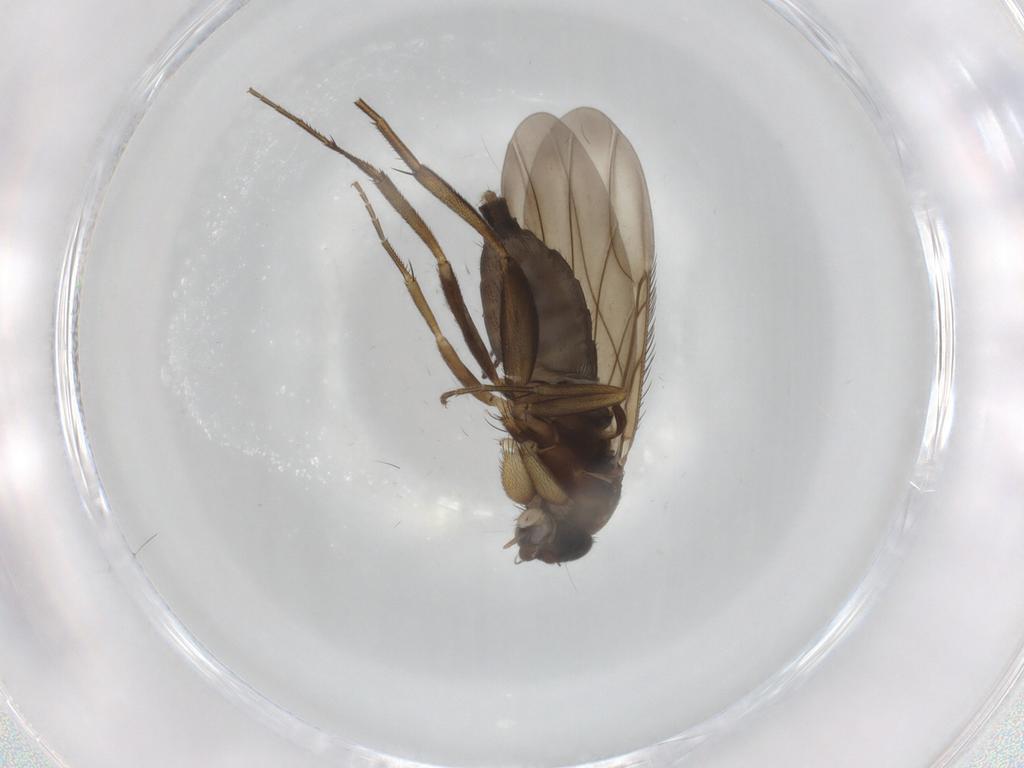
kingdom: Animalia
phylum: Arthropoda
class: Insecta
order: Diptera
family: Phoridae
